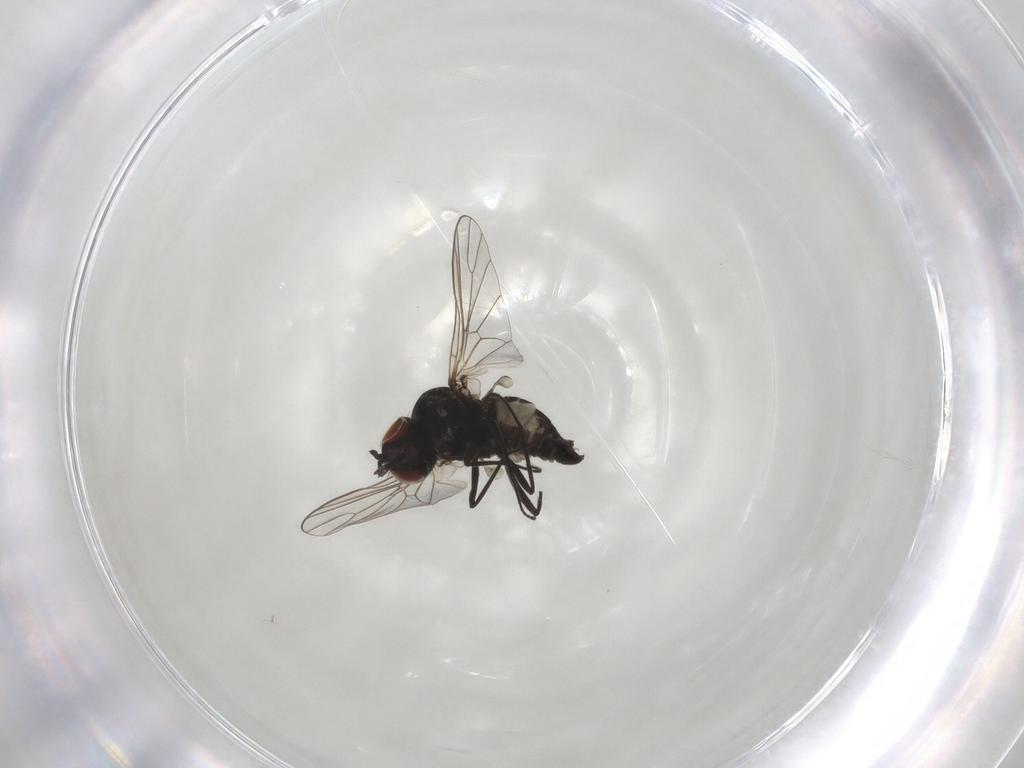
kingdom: Animalia
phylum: Arthropoda
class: Insecta
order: Diptera
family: Bombyliidae
